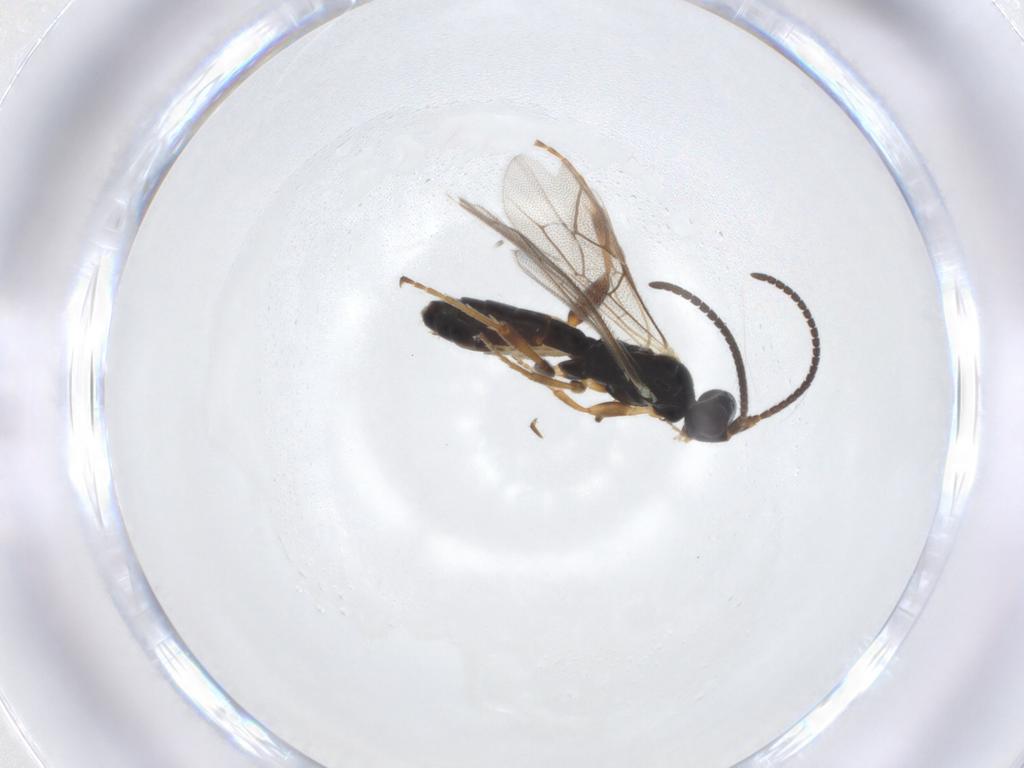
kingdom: Animalia
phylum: Arthropoda
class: Insecta
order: Hymenoptera
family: Ichneumonidae
